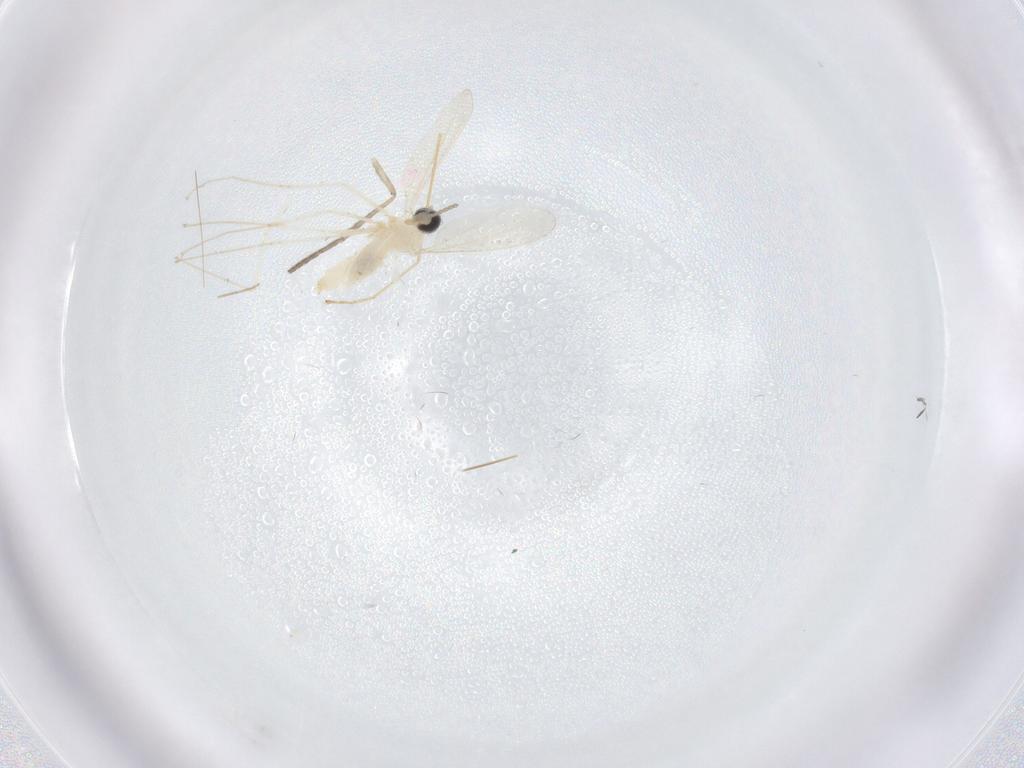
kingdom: Animalia
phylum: Arthropoda
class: Insecta
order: Diptera
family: Cecidomyiidae
